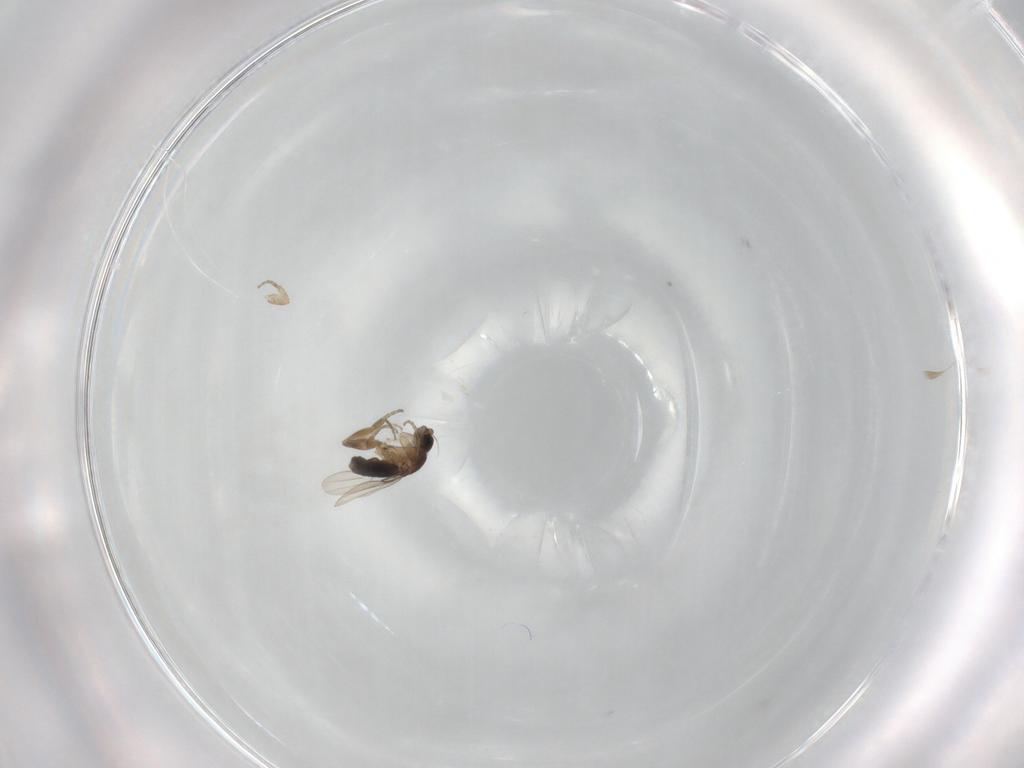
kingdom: Animalia
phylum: Arthropoda
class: Insecta
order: Diptera
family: Phoridae
